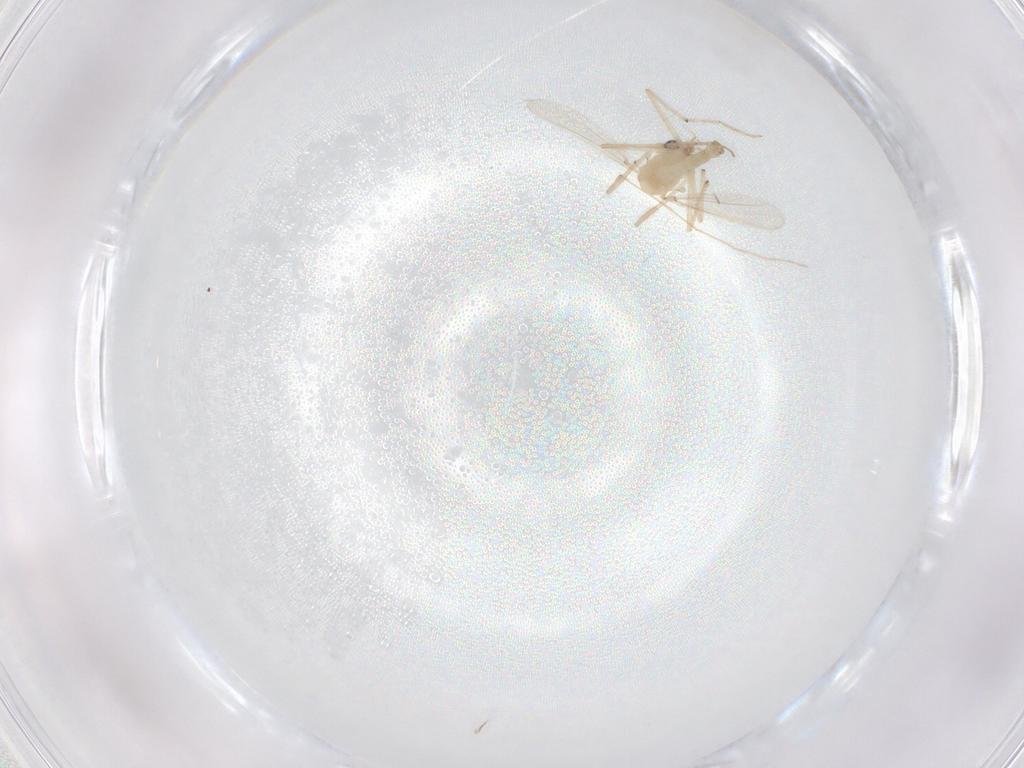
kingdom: Animalia
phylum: Arthropoda
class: Insecta
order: Diptera
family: Chironomidae
